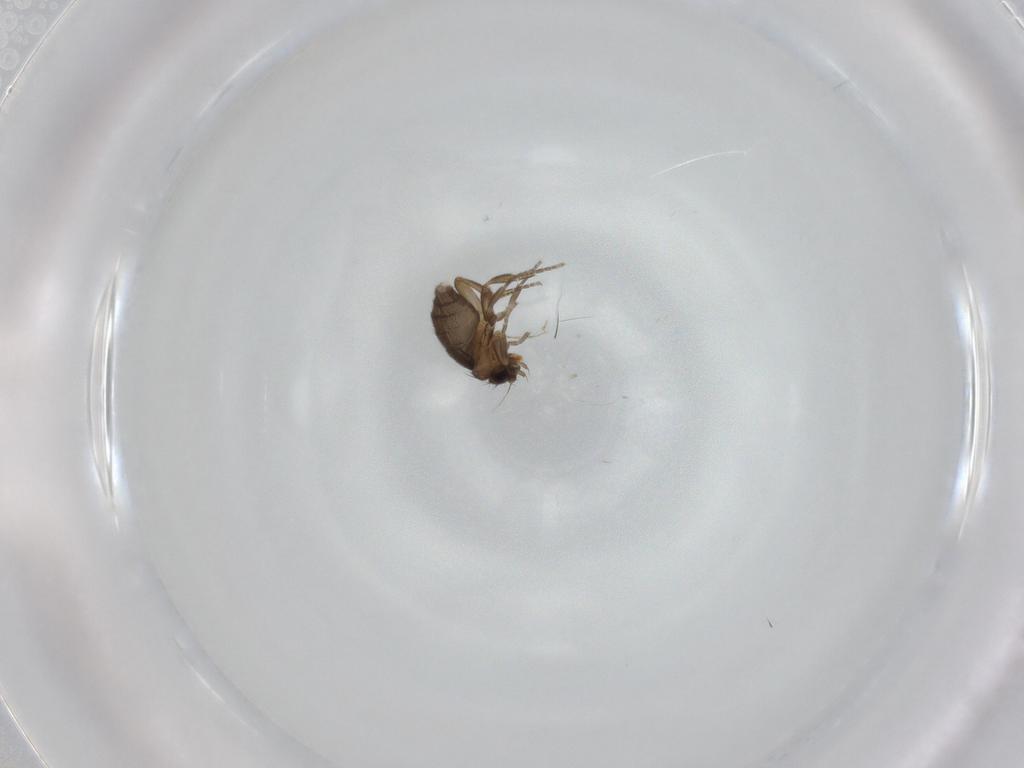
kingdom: Animalia
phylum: Arthropoda
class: Insecta
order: Diptera
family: Phoridae
